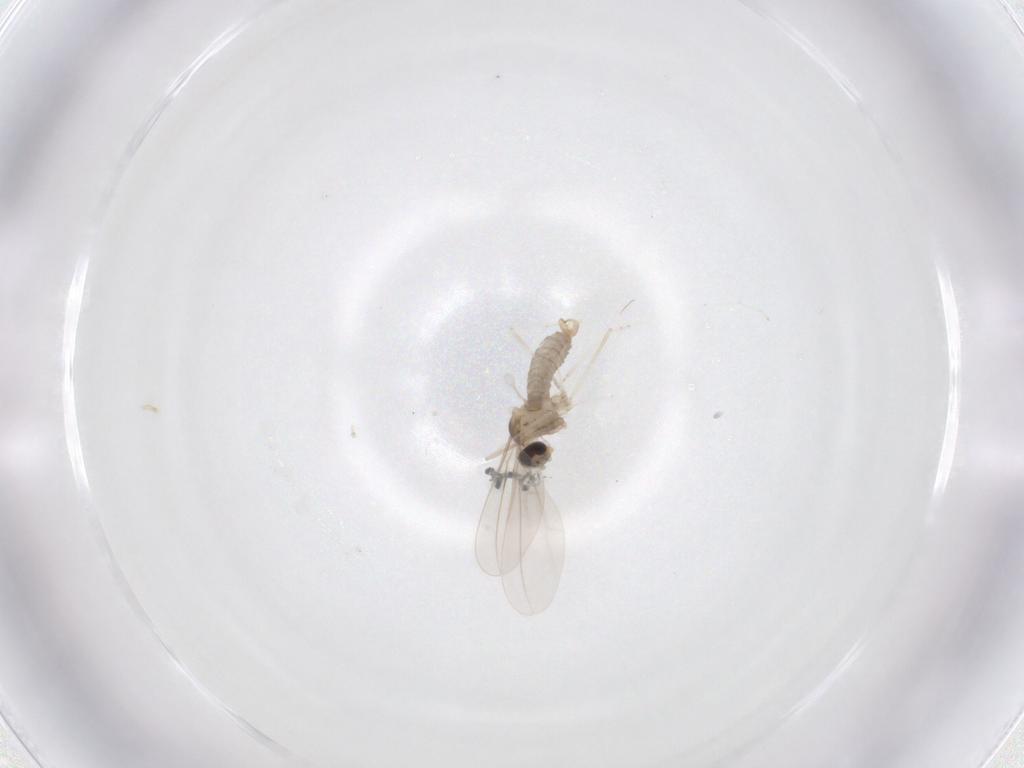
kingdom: Animalia
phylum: Arthropoda
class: Insecta
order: Diptera
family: Cecidomyiidae
